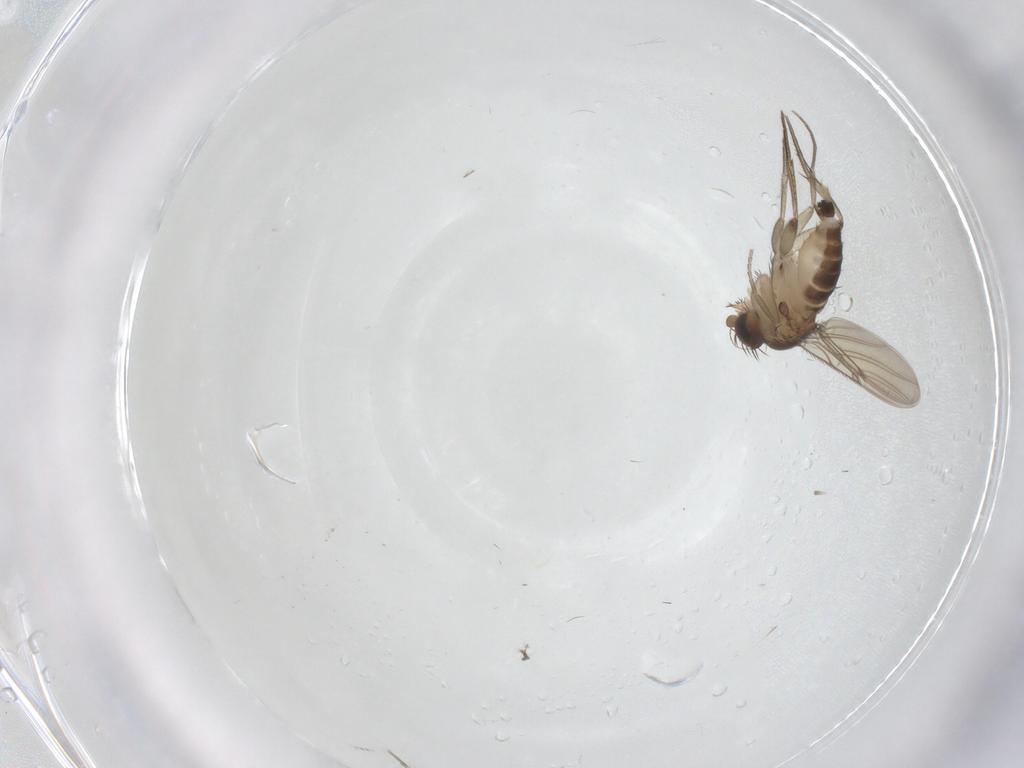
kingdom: Animalia
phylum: Arthropoda
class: Insecta
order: Diptera
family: Phoridae
